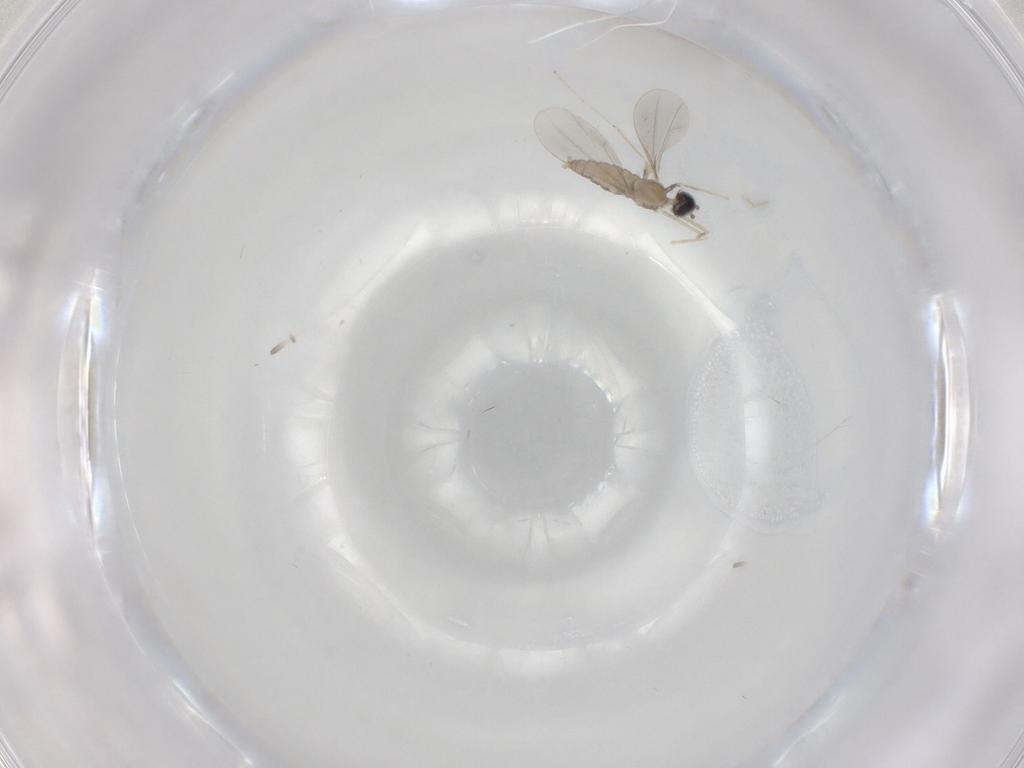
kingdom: Animalia
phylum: Arthropoda
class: Insecta
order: Diptera
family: Cecidomyiidae
